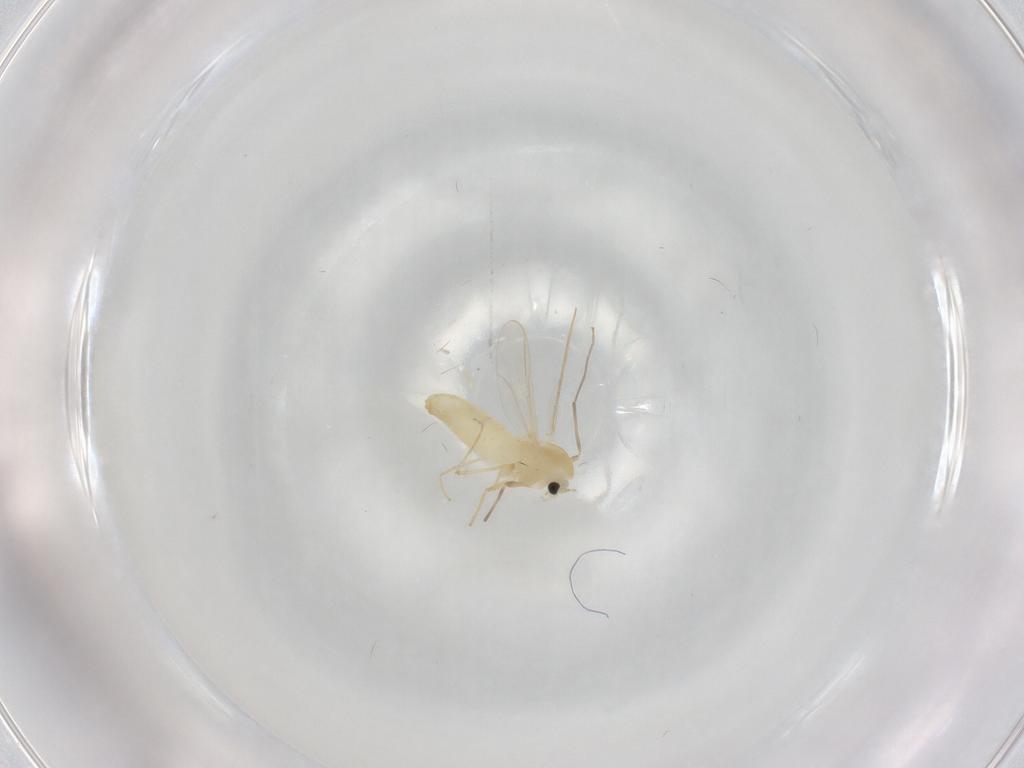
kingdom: Animalia
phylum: Arthropoda
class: Insecta
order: Diptera
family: Chironomidae
